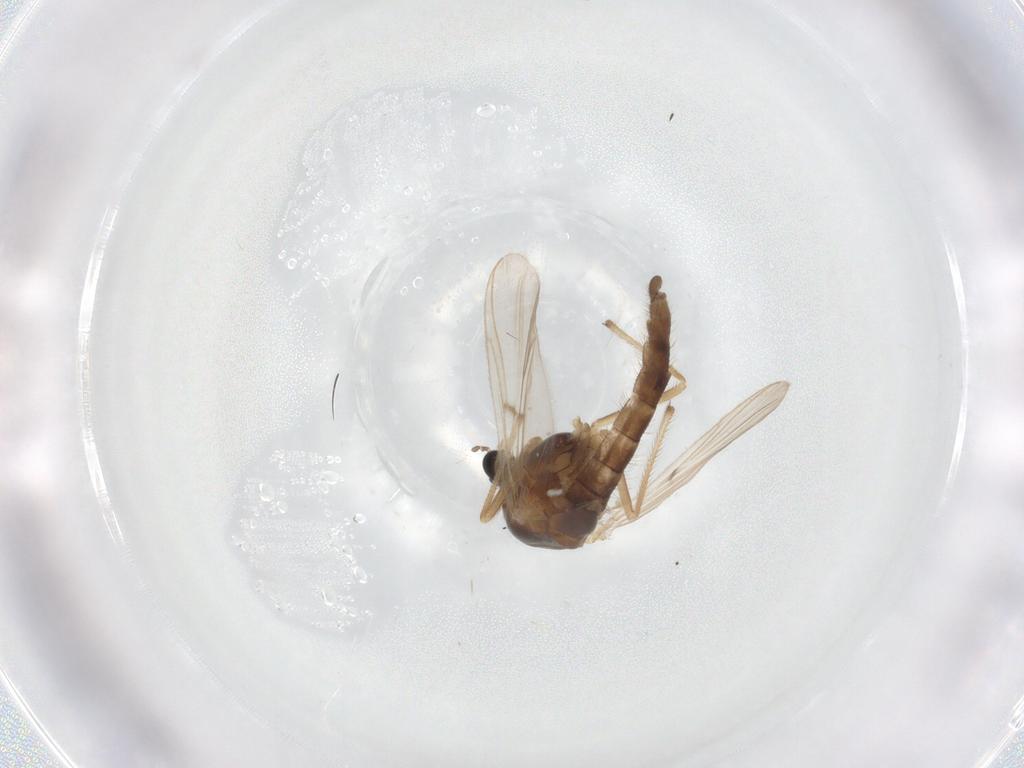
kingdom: Animalia
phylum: Arthropoda
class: Insecta
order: Diptera
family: Chironomidae
